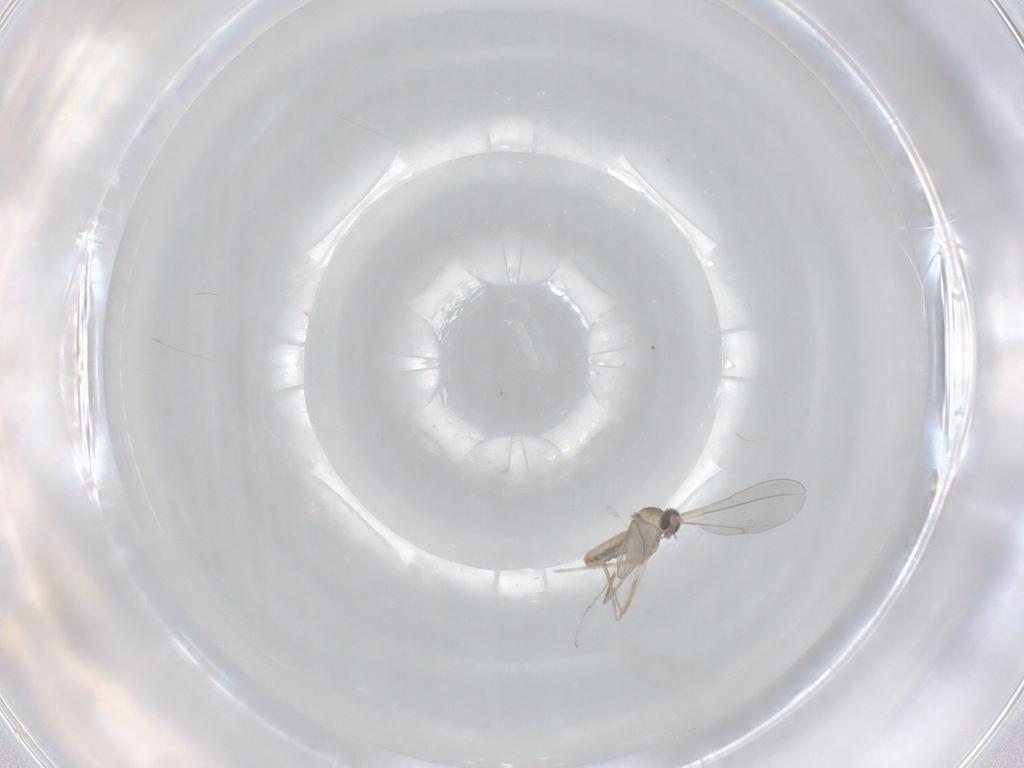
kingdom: Animalia
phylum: Arthropoda
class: Insecta
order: Diptera
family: Cecidomyiidae
